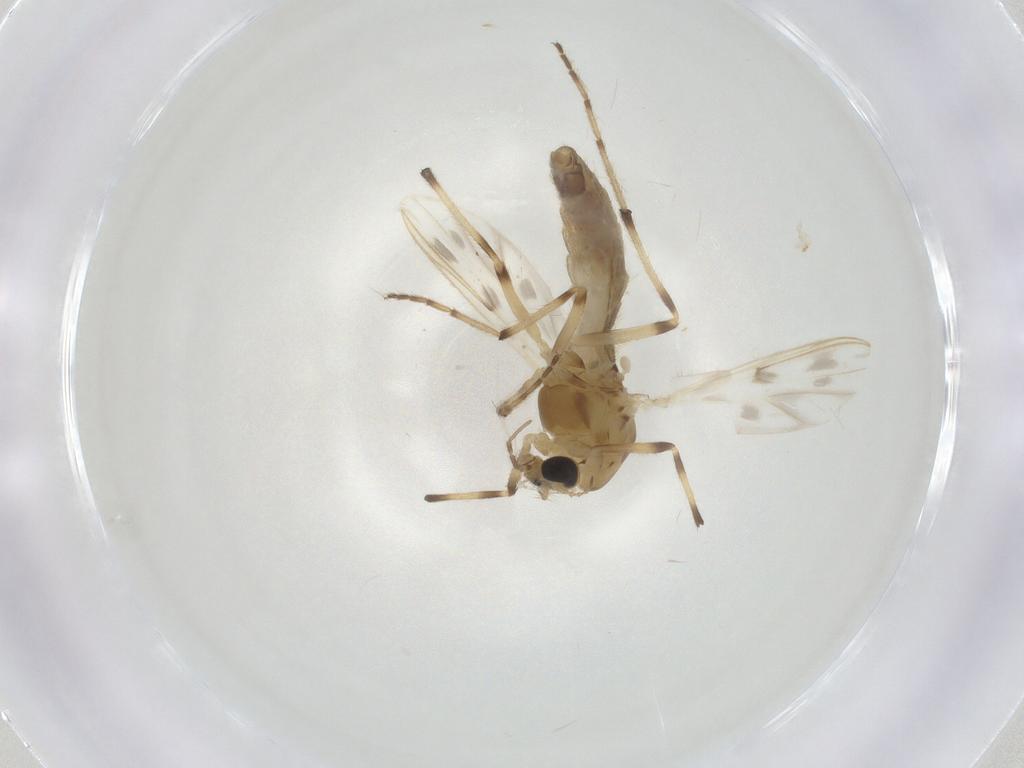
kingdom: Animalia
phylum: Arthropoda
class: Insecta
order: Diptera
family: Chironomidae
